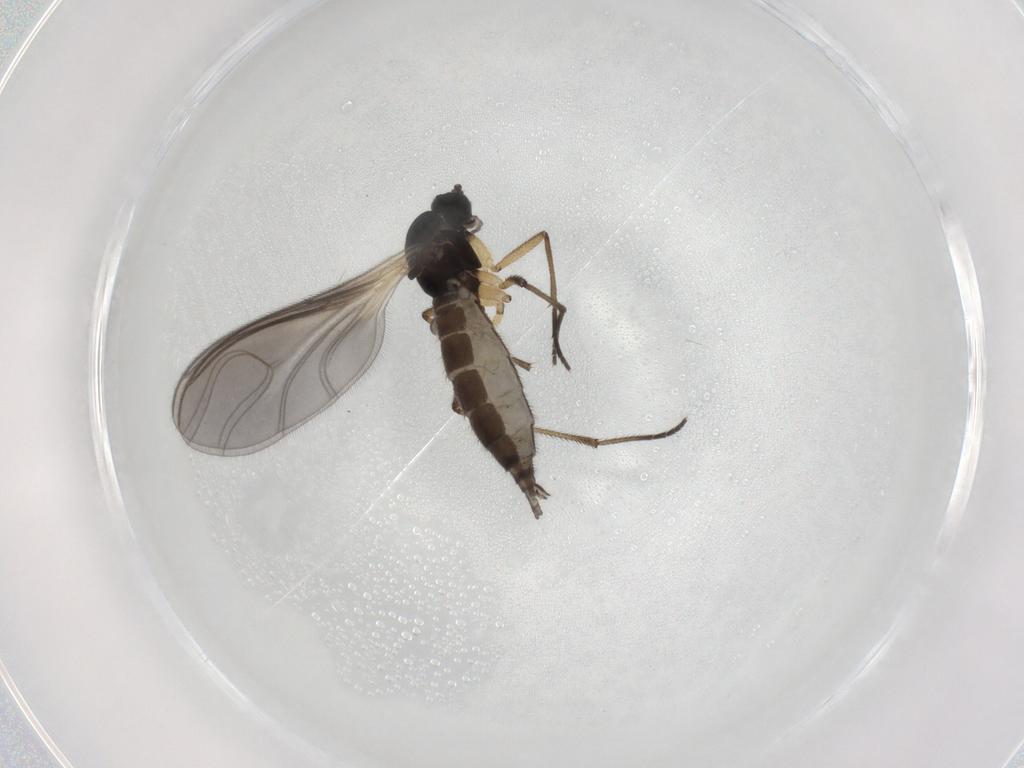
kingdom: Animalia
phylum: Arthropoda
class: Insecta
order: Diptera
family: Sciaridae
